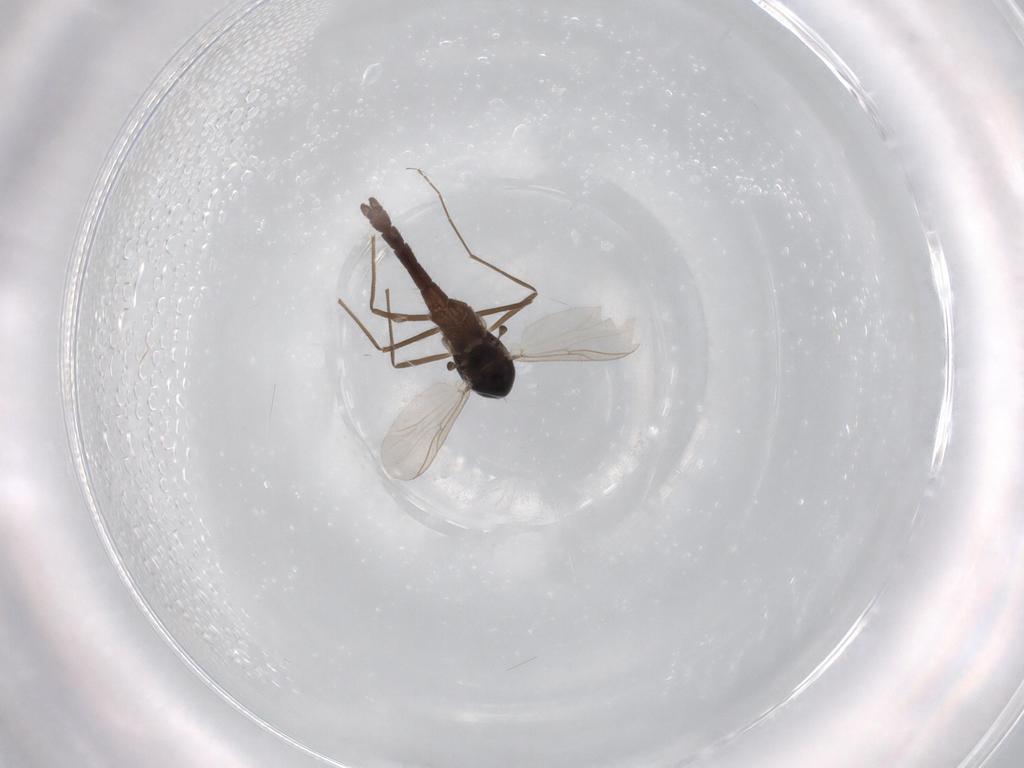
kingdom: Animalia
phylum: Arthropoda
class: Insecta
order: Diptera
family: Chironomidae
